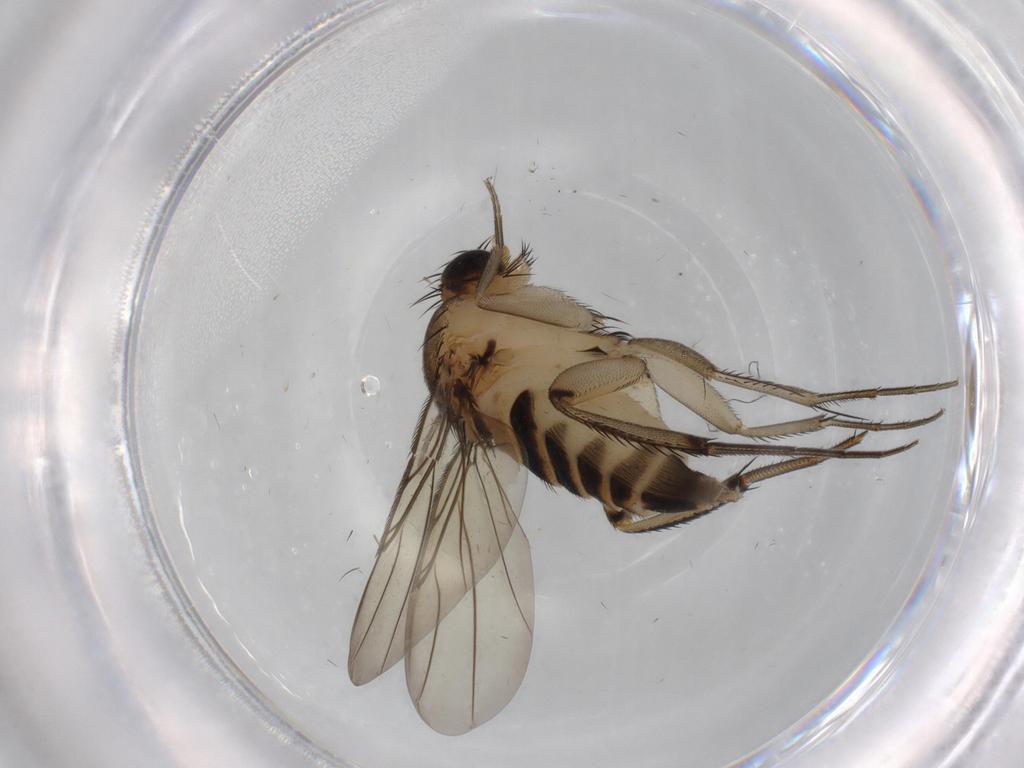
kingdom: Animalia
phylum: Arthropoda
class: Insecta
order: Diptera
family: Phoridae
